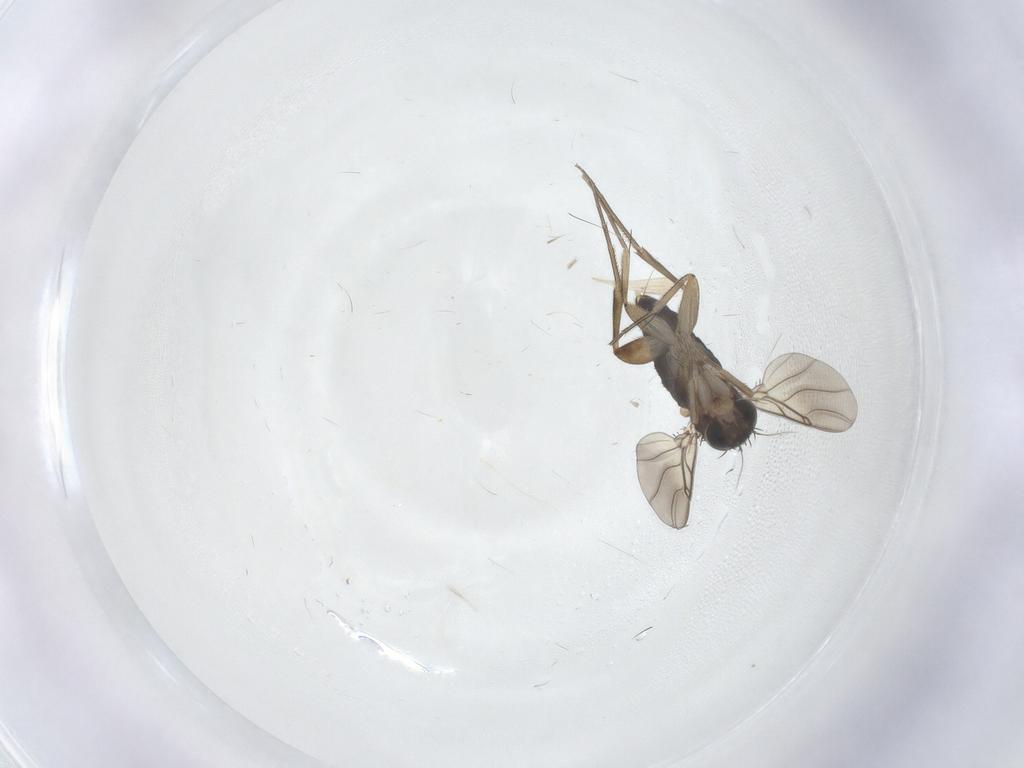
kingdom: Animalia
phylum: Arthropoda
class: Insecta
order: Diptera
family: Phoridae
